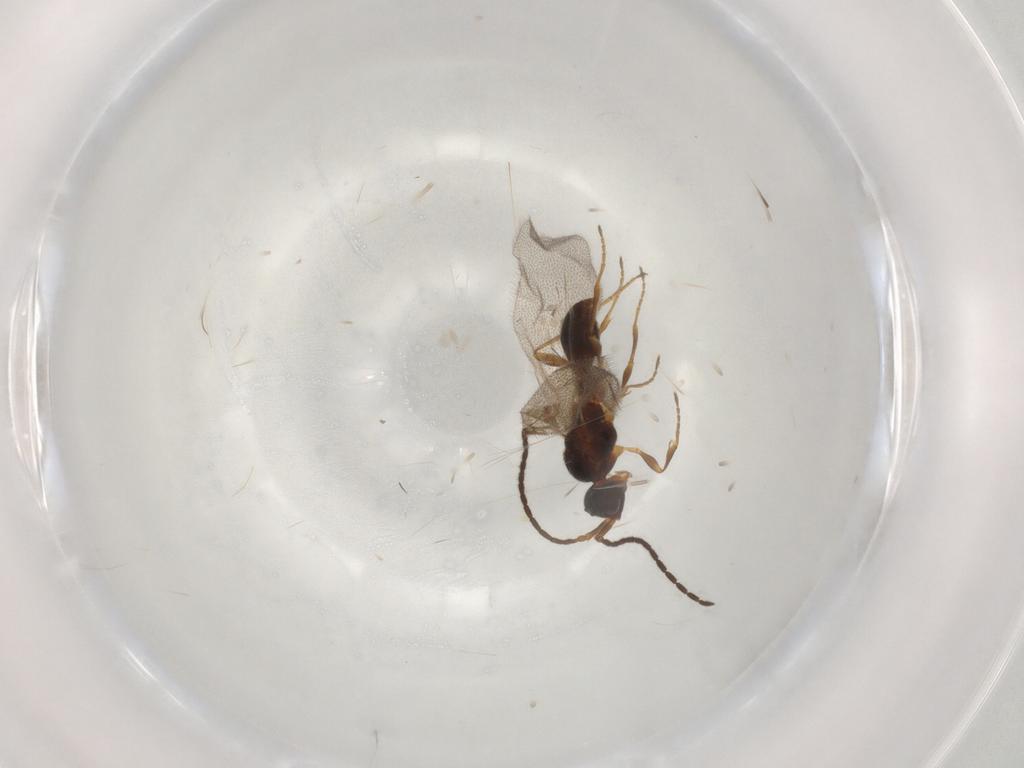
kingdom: Animalia
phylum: Arthropoda
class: Insecta
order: Hymenoptera
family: Diapriidae
